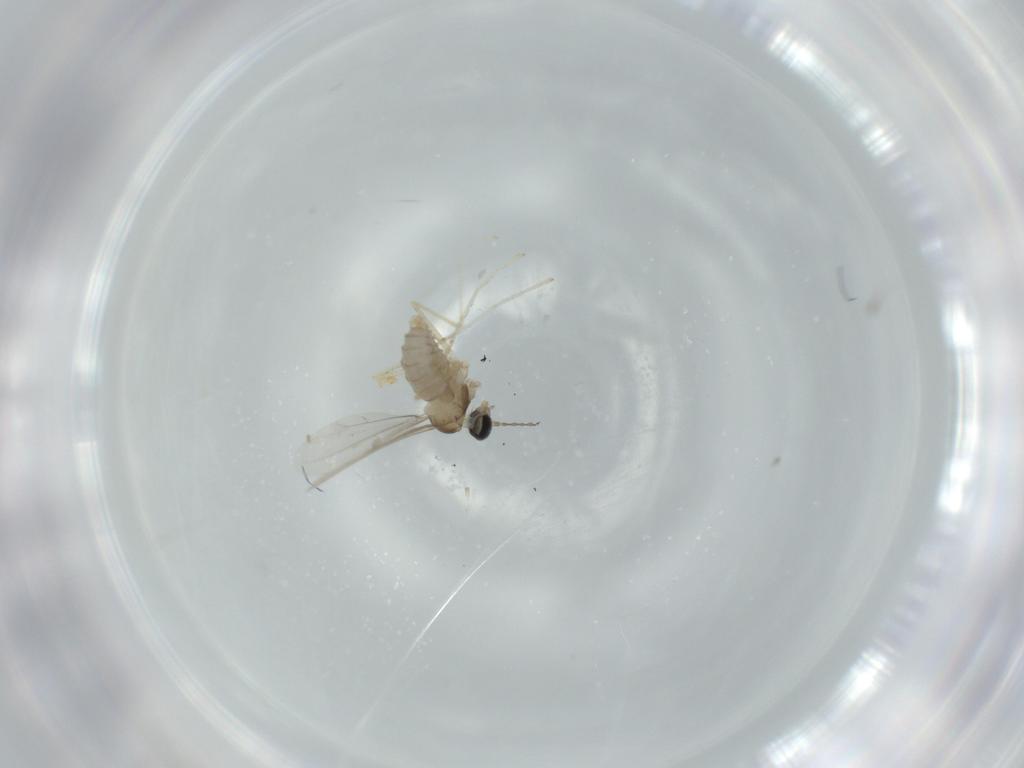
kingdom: Animalia
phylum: Arthropoda
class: Insecta
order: Diptera
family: Cecidomyiidae
